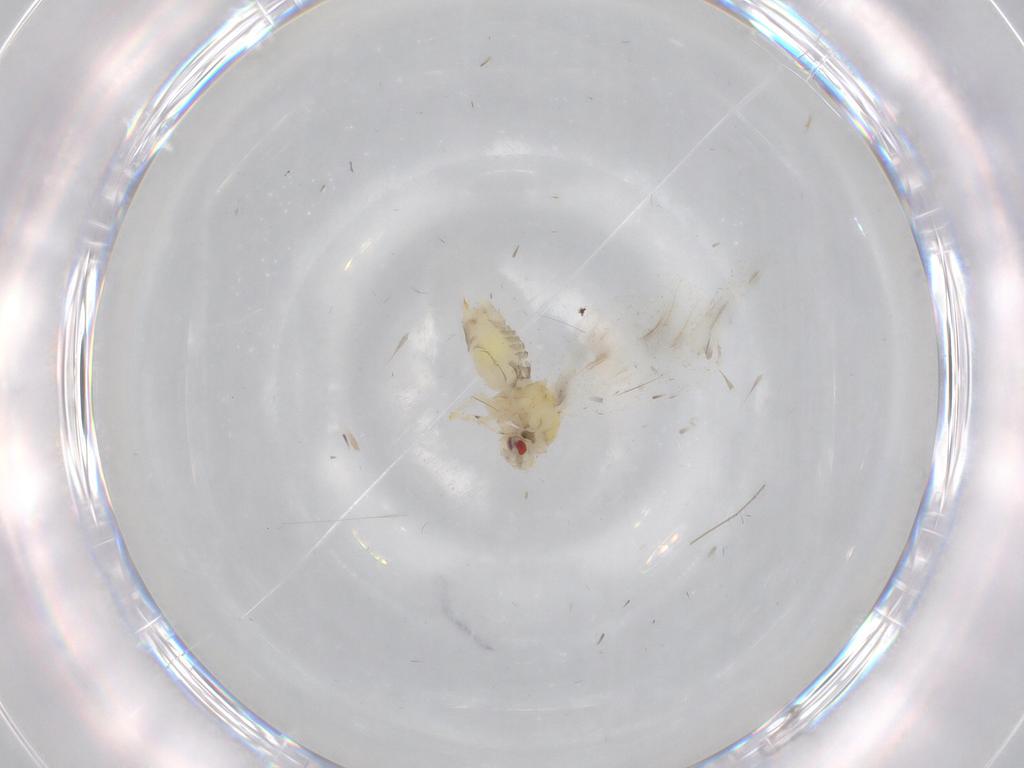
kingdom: Animalia
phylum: Arthropoda
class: Insecta
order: Hemiptera
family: Aleyrodidae
